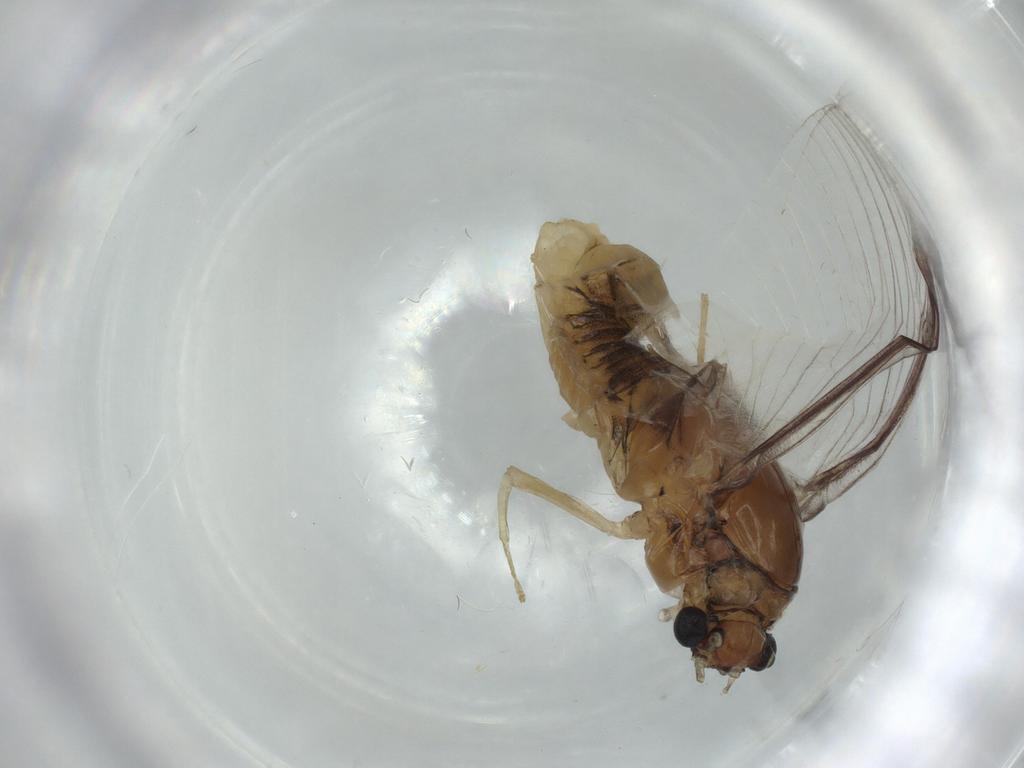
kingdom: Animalia
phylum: Arthropoda
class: Insecta
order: Ephemeroptera
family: Caenidae
